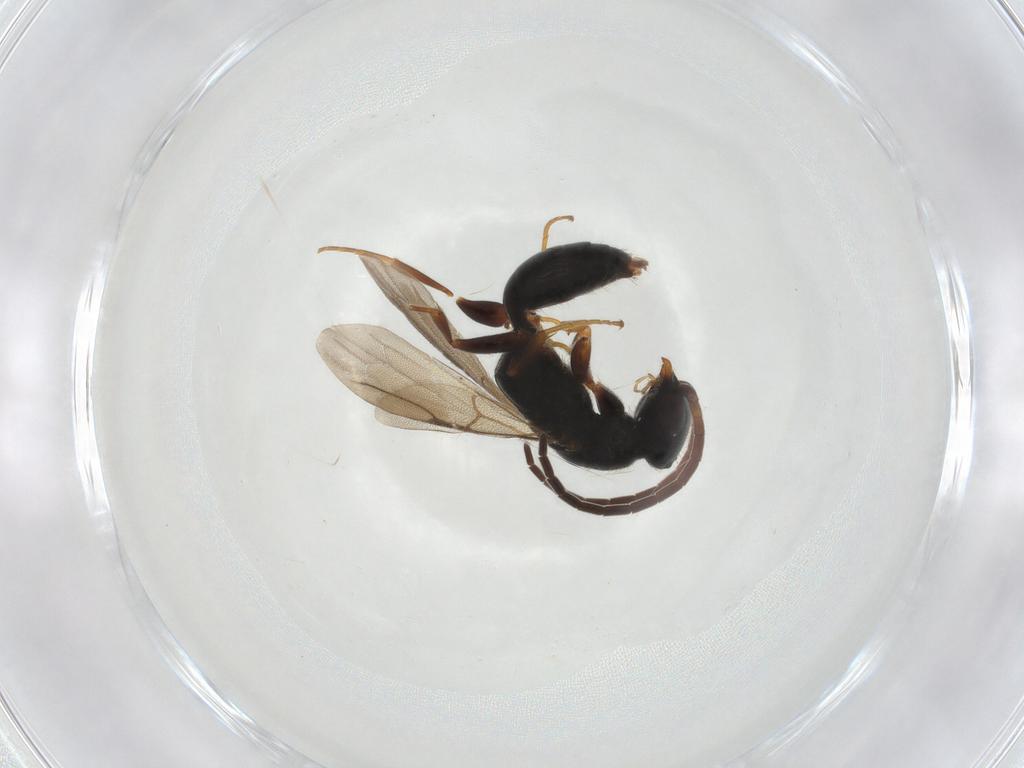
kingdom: Animalia
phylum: Arthropoda
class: Insecta
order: Hymenoptera
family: Bethylidae
